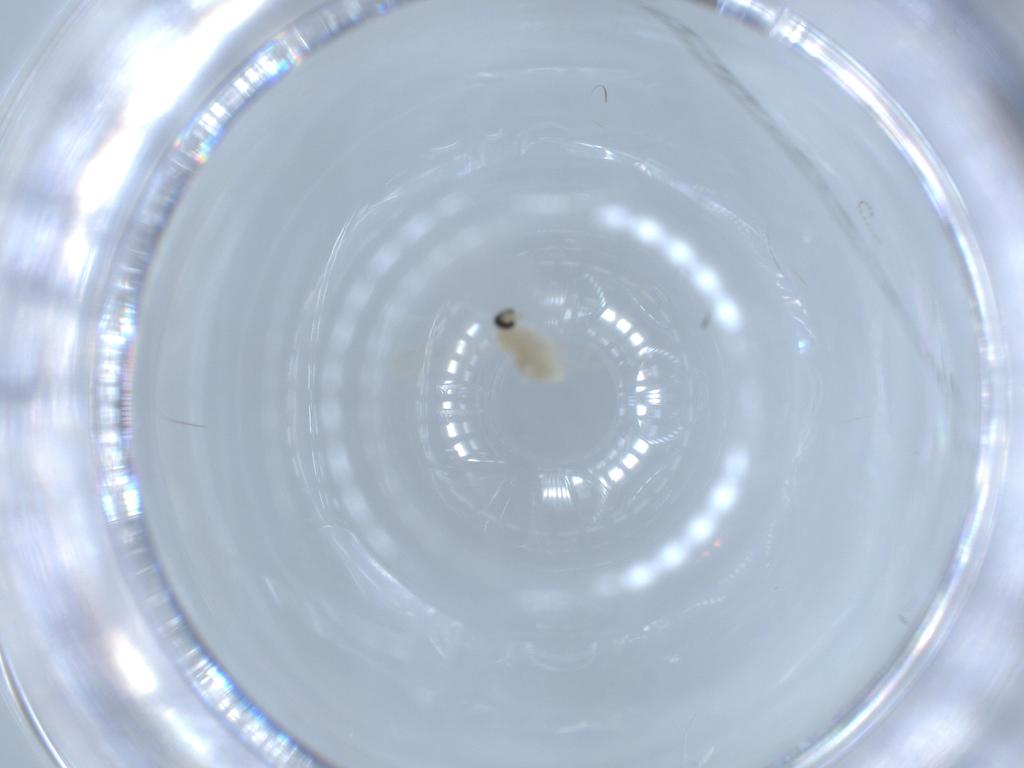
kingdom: Animalia
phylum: Arthropoda
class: Insecta
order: Diptera
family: Cecidomyiidae
